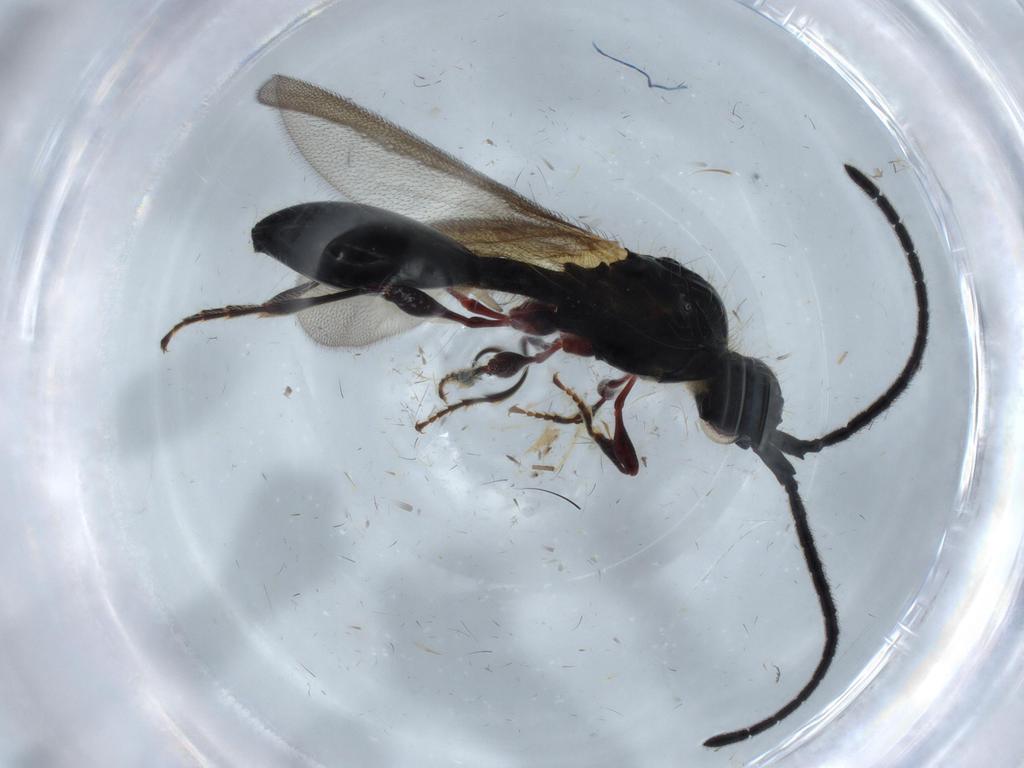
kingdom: Animalia
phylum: Arthropoda
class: Insecta
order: Hymenoptera
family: Diapriidae
